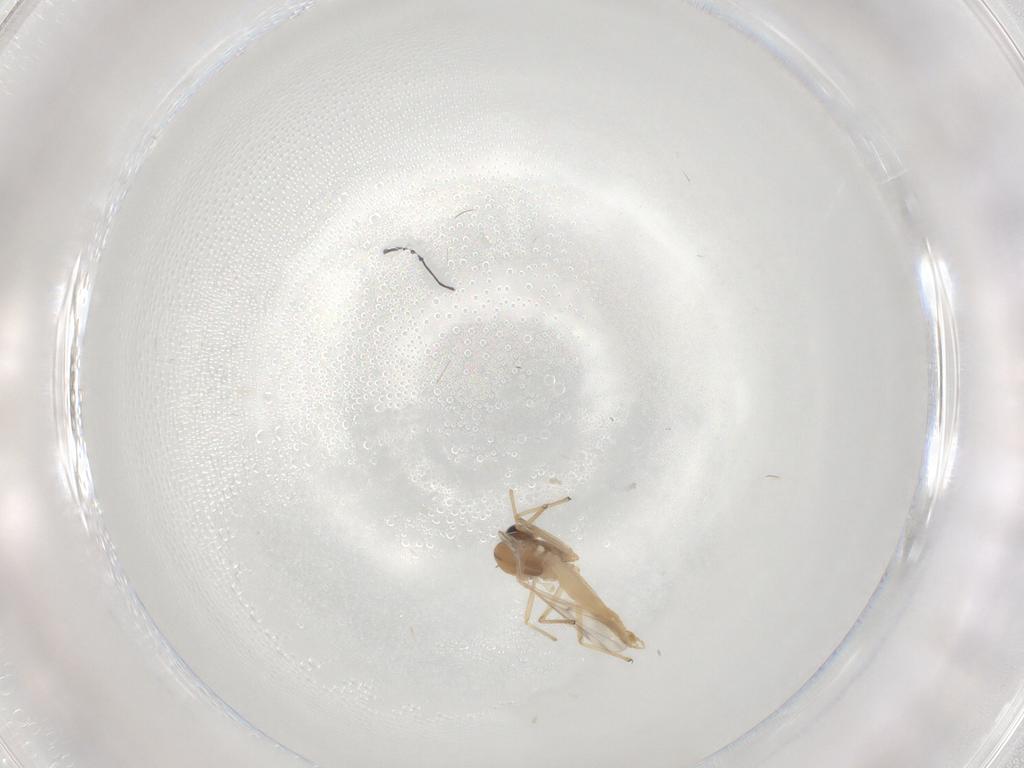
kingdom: Animalia
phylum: Arthropoda
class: Insecta
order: Diptera
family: Chironomidae
